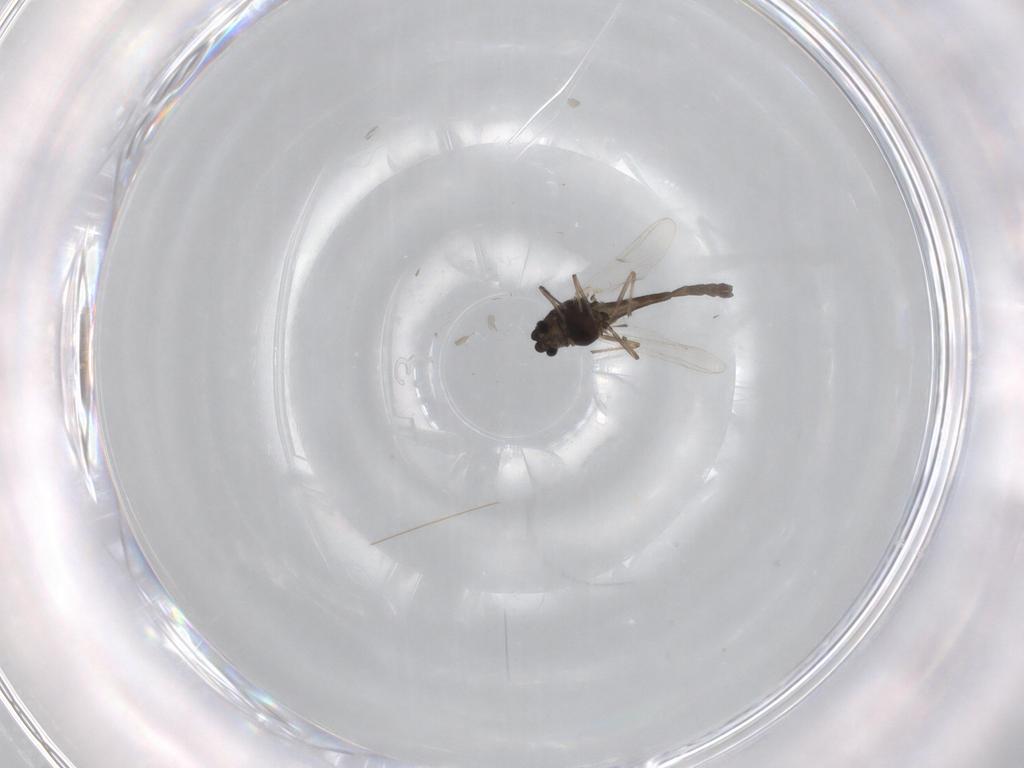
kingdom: Animalia
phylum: Arthropoda
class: Insecta
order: Diptera
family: Chironomidae
